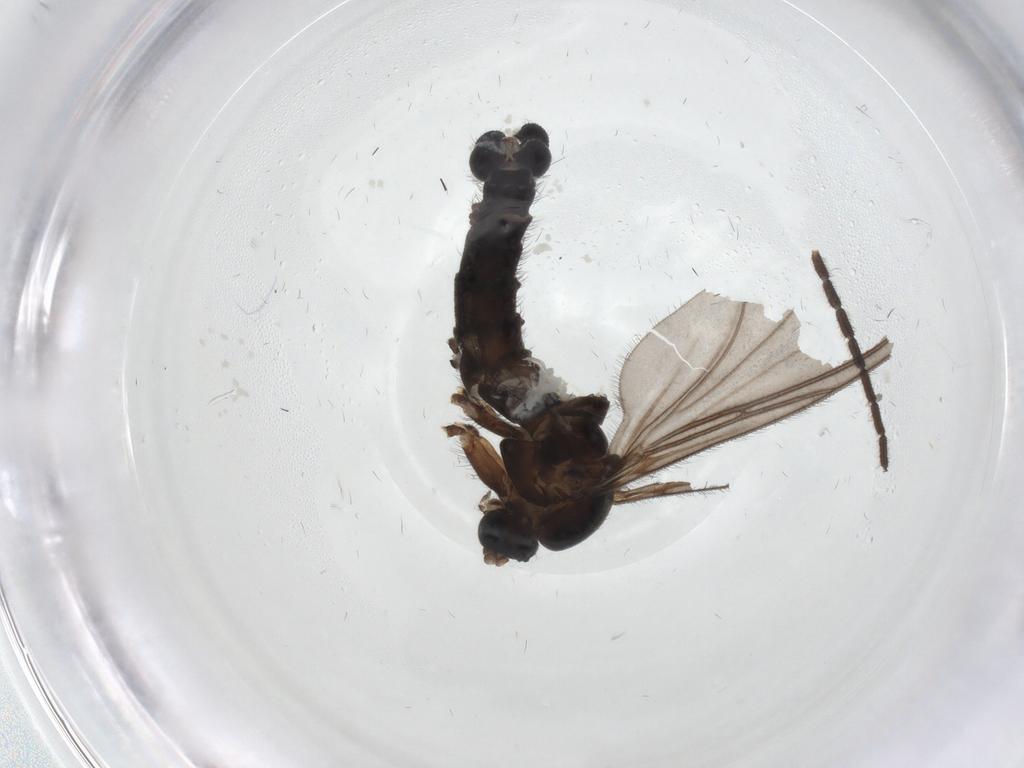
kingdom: Animalia
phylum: Arthropoda
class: Insecta
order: Diptera
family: Sciaridae
